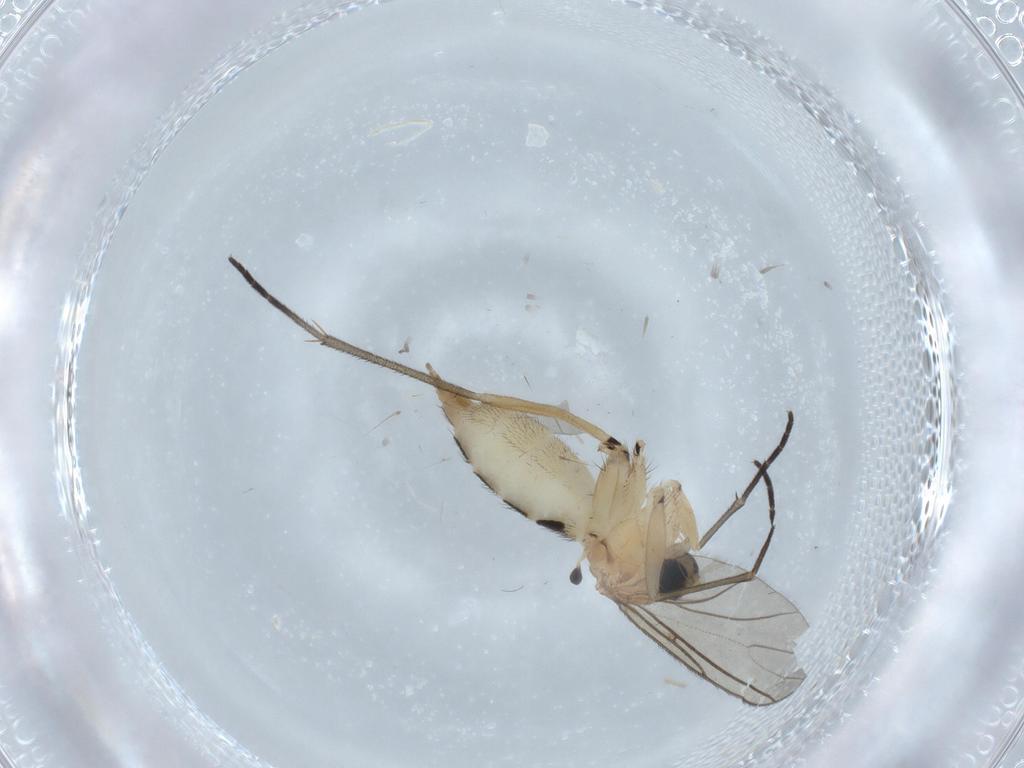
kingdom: Animalia
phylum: Arthropoda
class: Insecta
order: Diptera
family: Sciaridae
